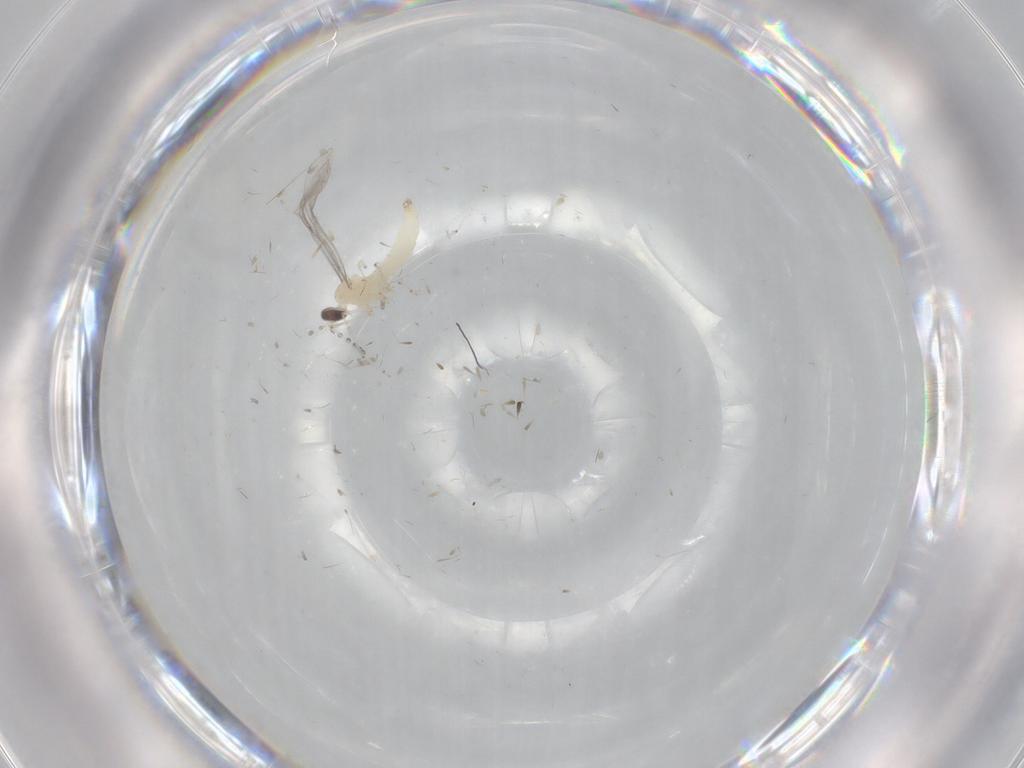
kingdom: Animalia
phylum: Arthropoda
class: Insecta
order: Diptera
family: Cecidomyiidae
